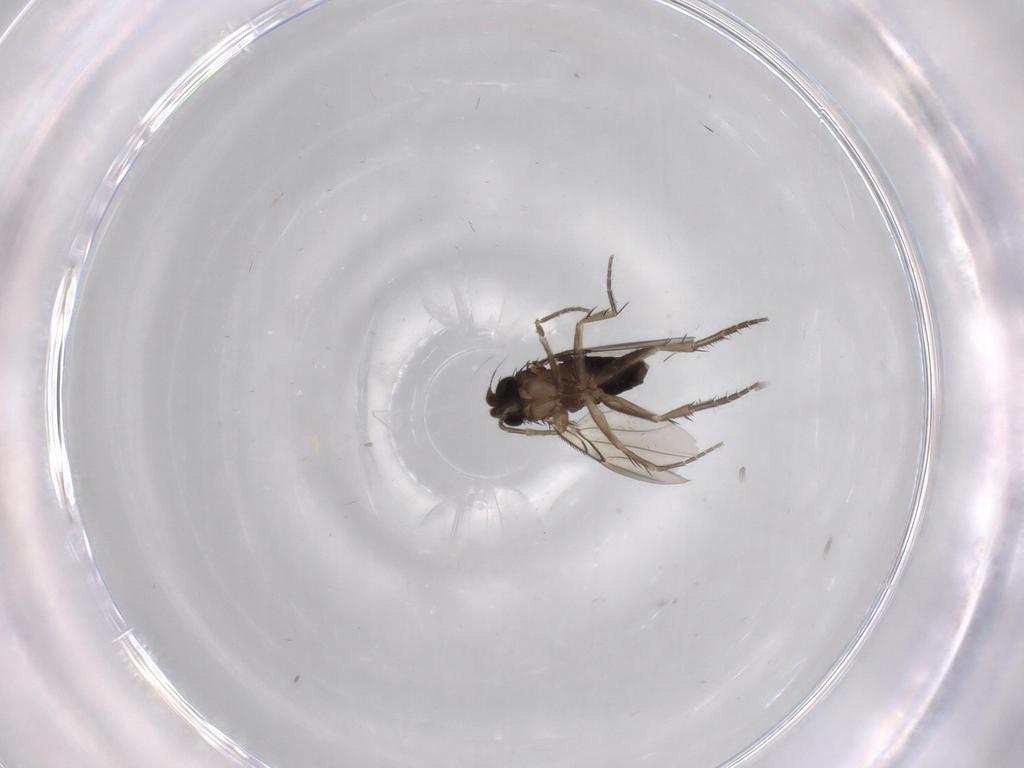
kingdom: Animalia
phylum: Arthropoda
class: Insecta
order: Diptera
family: Phoridae
